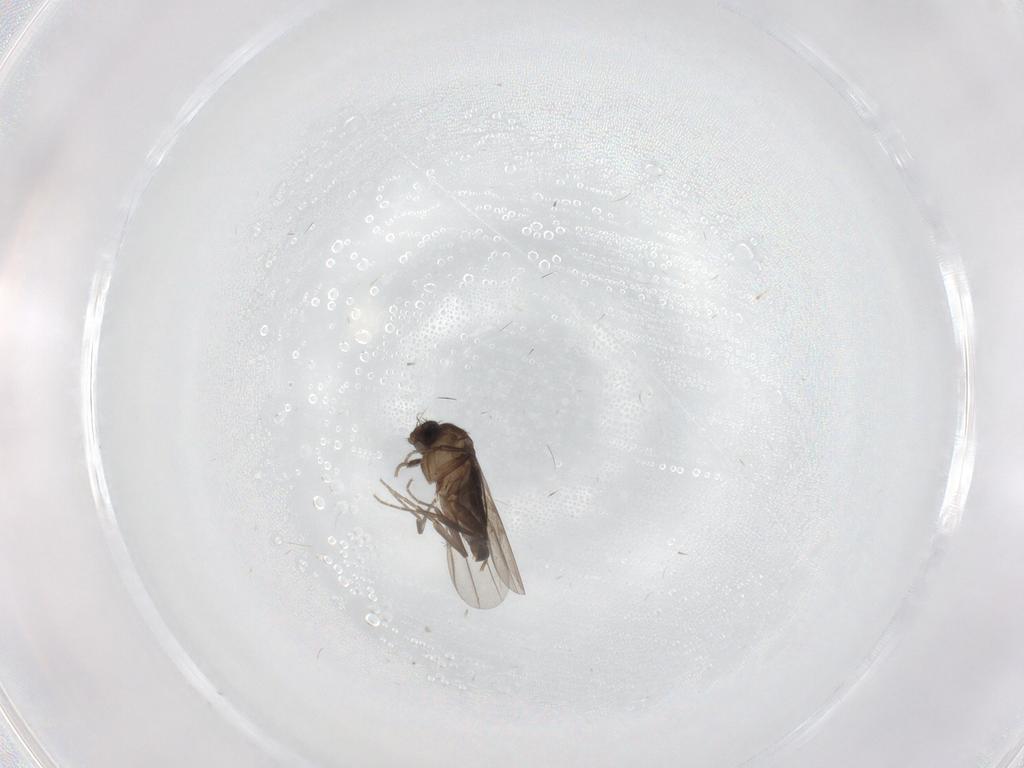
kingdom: Animalia
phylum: Arthropoda
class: Insecta
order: Diptera
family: Phoridae
